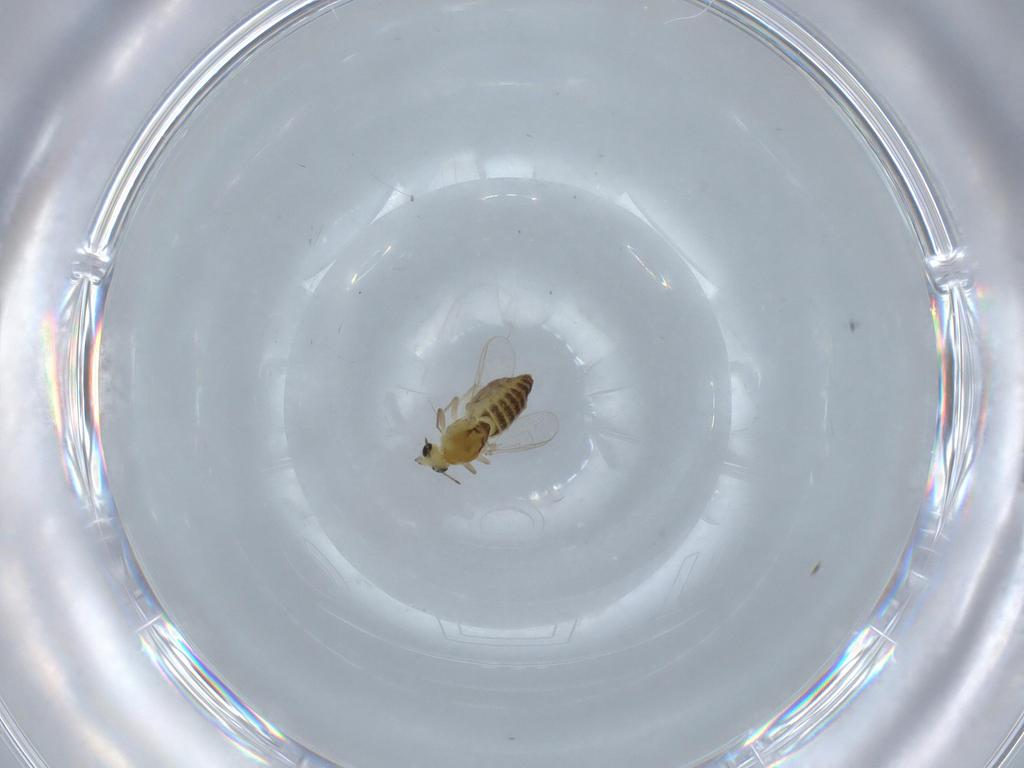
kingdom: Animalia
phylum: Arthropoda
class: Insecta
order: Diptera
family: Chironomidae
